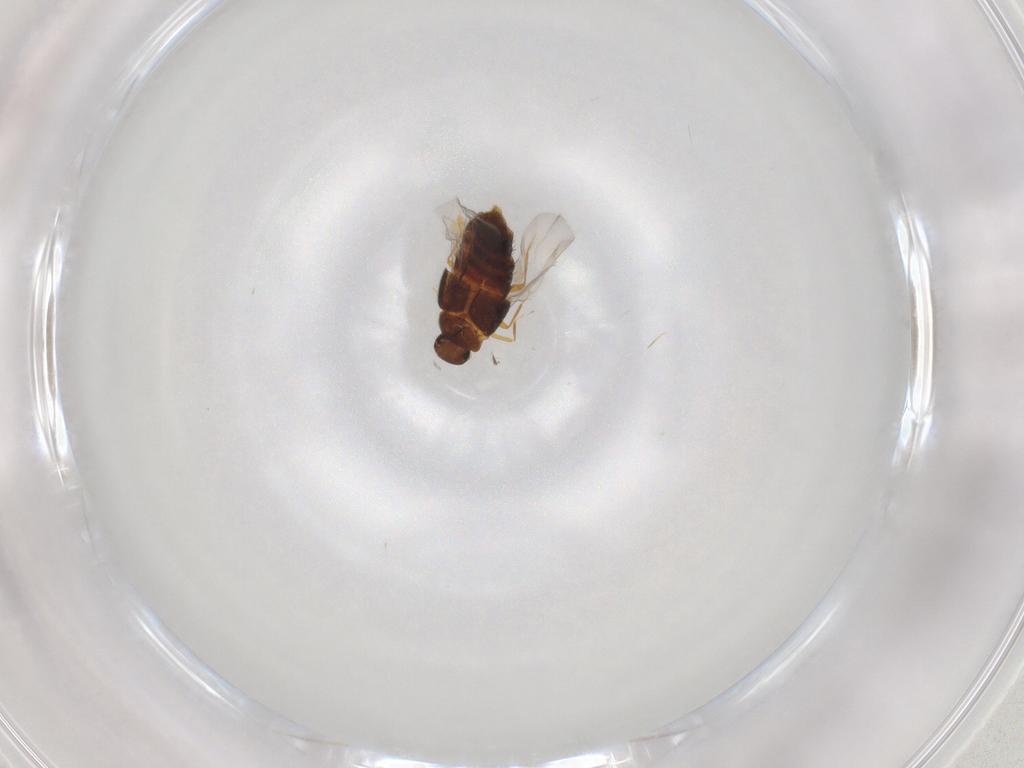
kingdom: Animalia
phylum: Arthropoda
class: Insecta
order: Coleoptera
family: Staphylinidae
